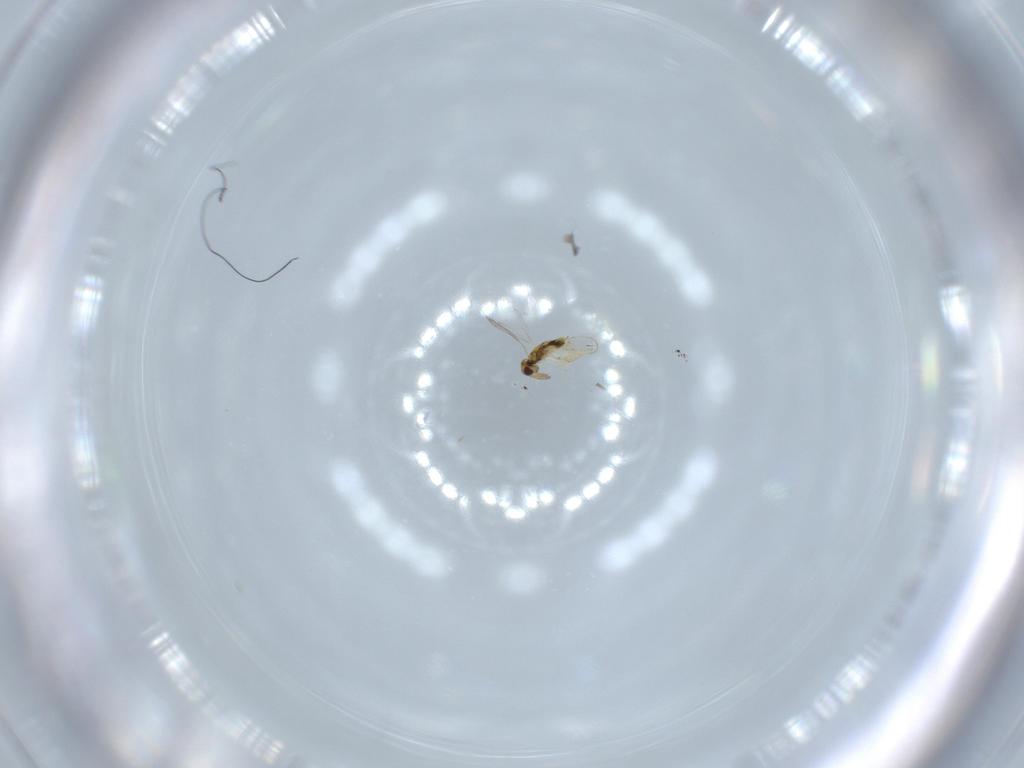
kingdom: Animalia
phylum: Arthropoda
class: Insecta
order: Hymenoptera
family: Aphelinidae
